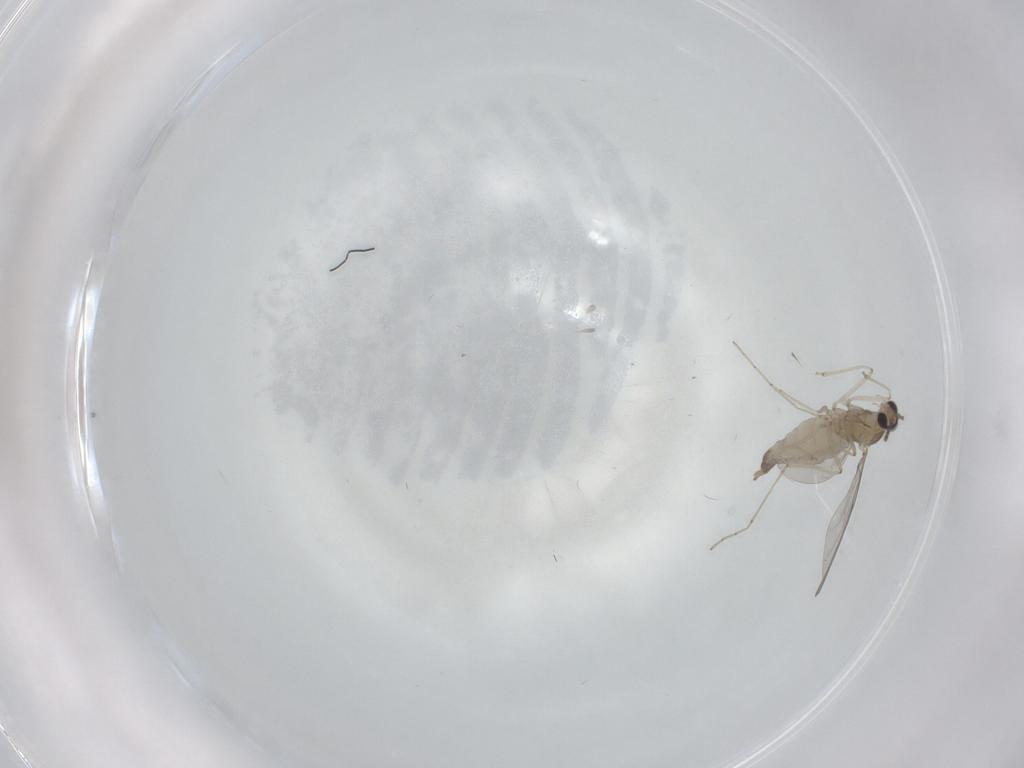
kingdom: Animalia
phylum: Arthropoda
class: Insecta
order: Diptera
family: Cecidomyiidae
